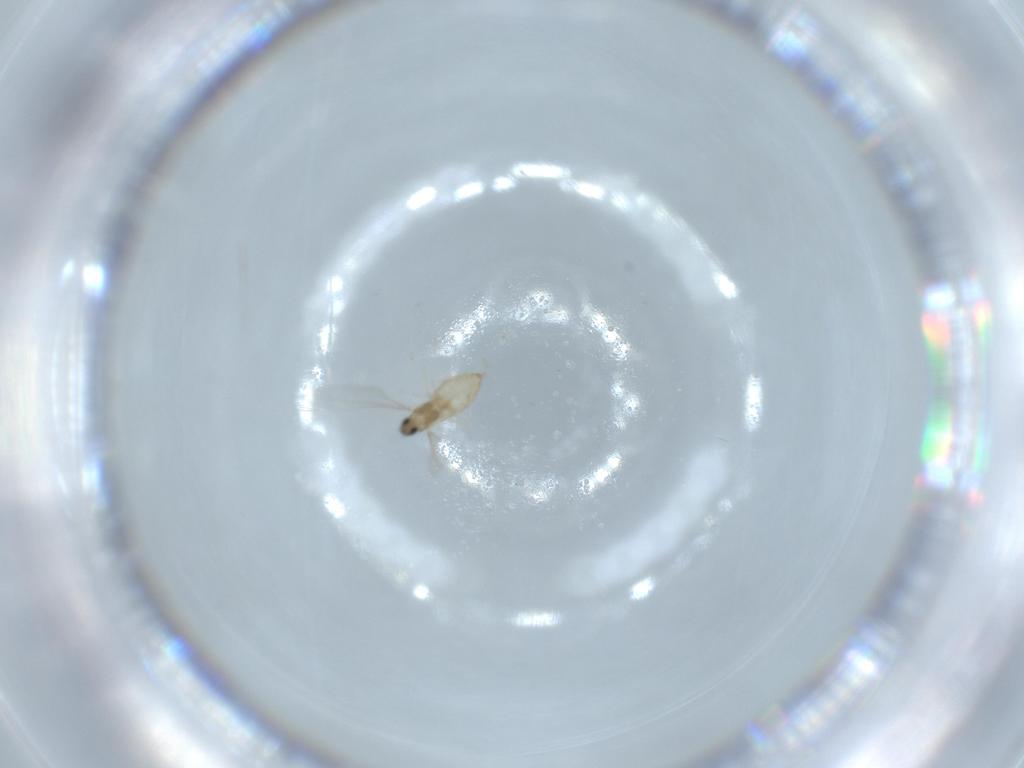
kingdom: Animalia
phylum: Arthropoda
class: Insecta
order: Diptera
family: Cecidomyiidae
